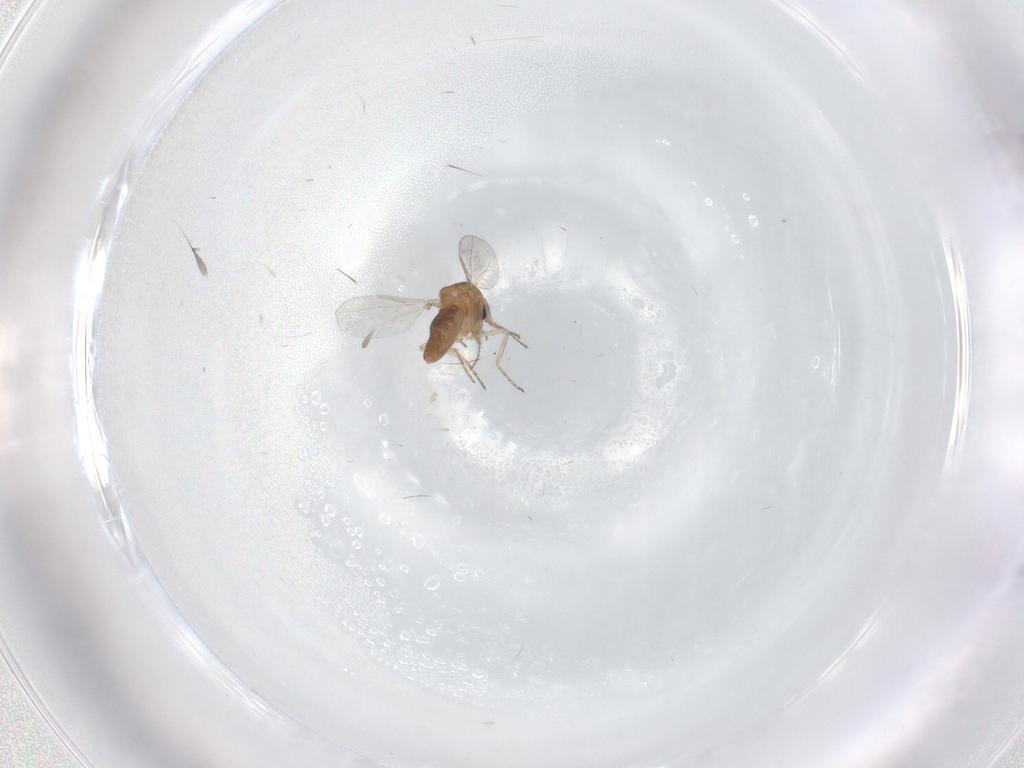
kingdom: Animalia
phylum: Arthropoda
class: Insecta
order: Diptera
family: Ceratopogonidae
